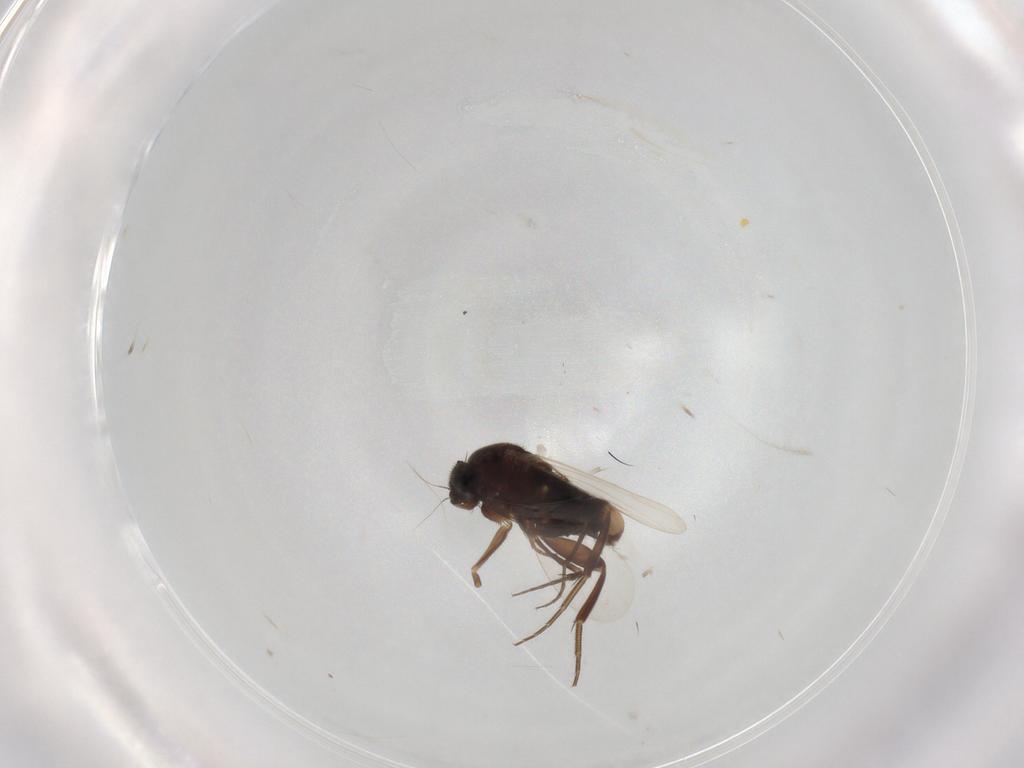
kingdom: Animalia
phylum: Arthropoda
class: Insecta
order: Diptera
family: Phoridae
